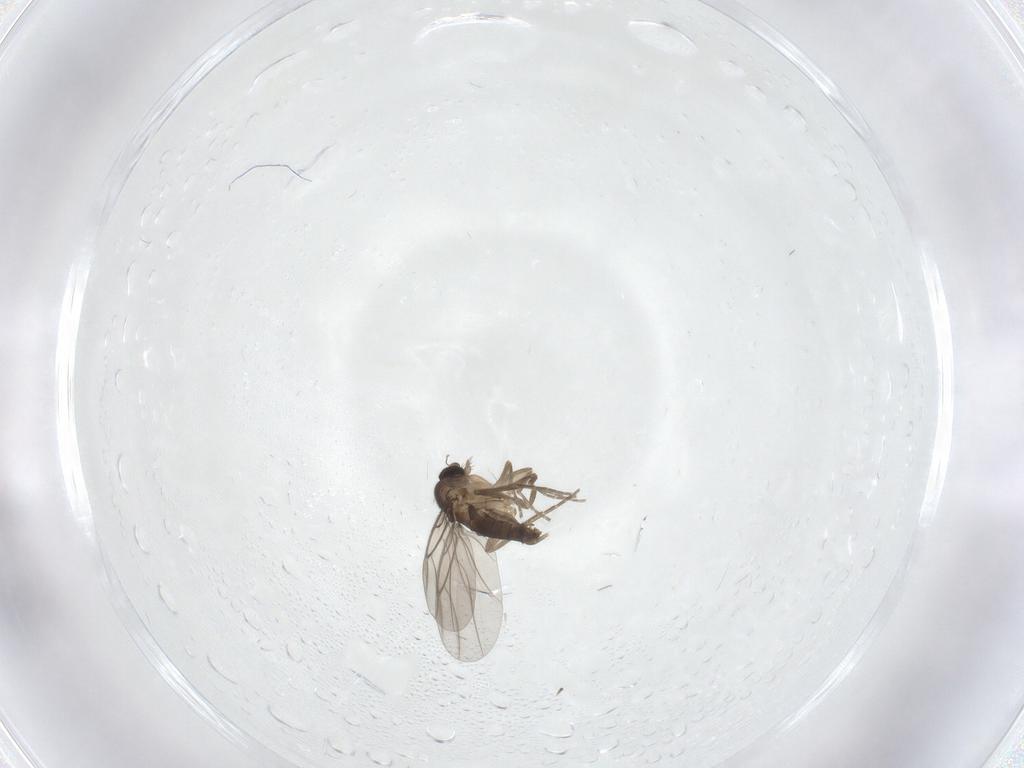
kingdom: Animalia
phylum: Arthropoda
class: Insecta
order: Diptera
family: Phoridae
